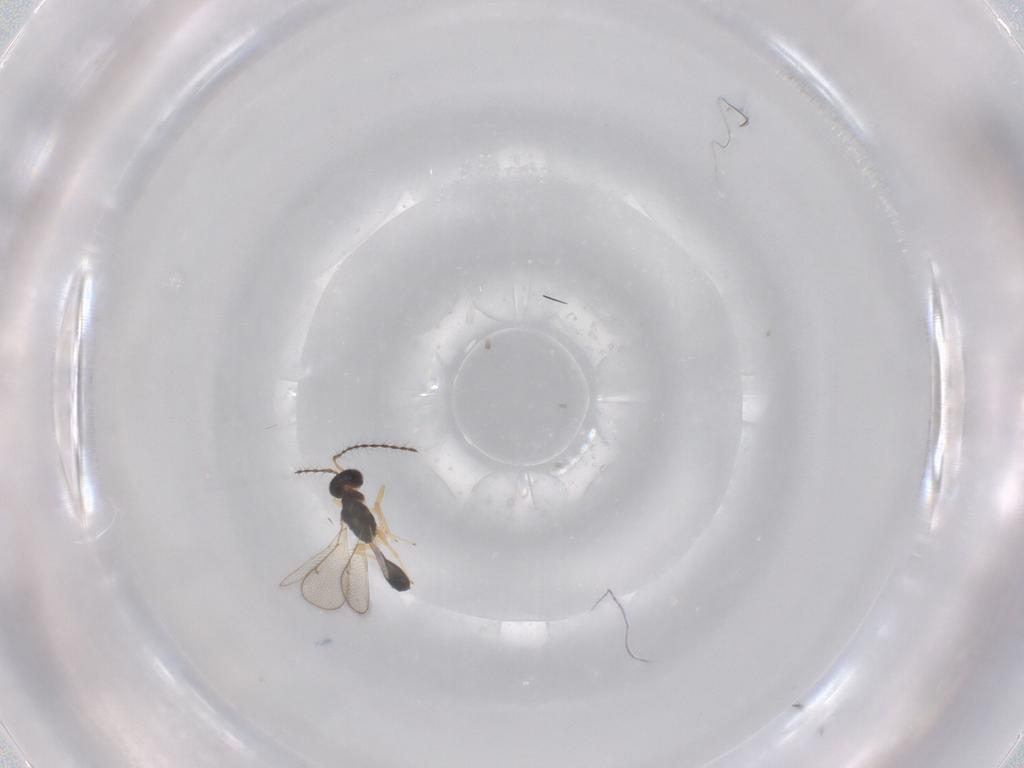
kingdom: Animalia
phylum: Arthropoda
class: Insecta
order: Hymenoptera
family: Diparidae
